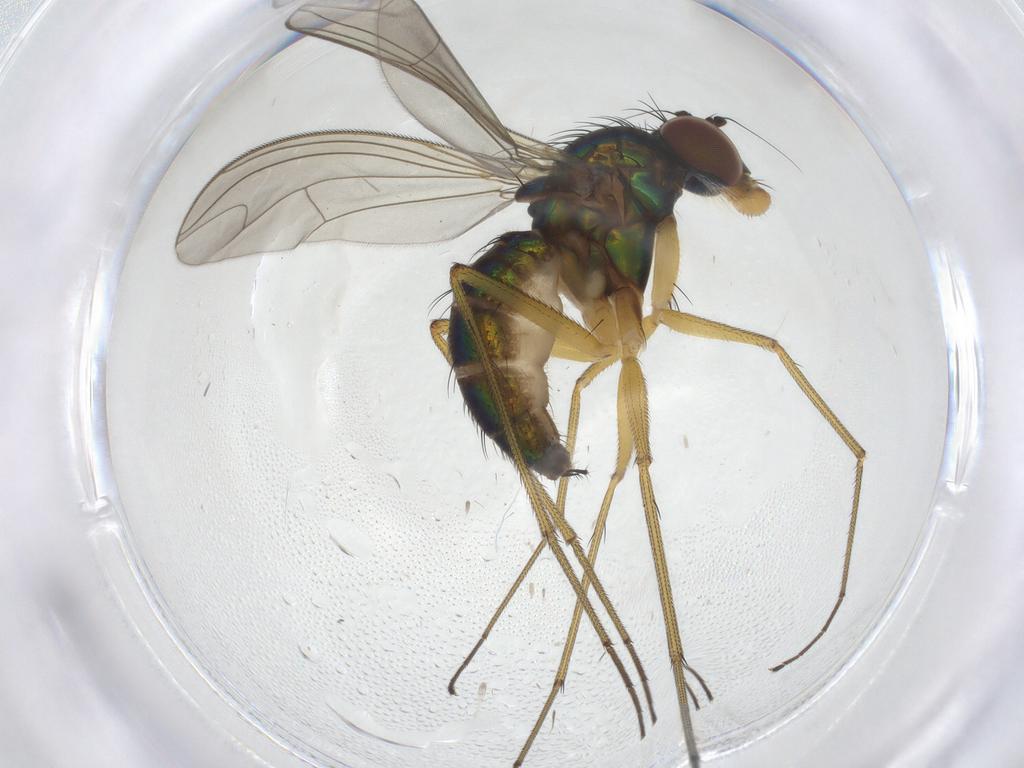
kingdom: Animalia
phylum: Arthropoda
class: Insecta
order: Diptera
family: Dolichopodidae
